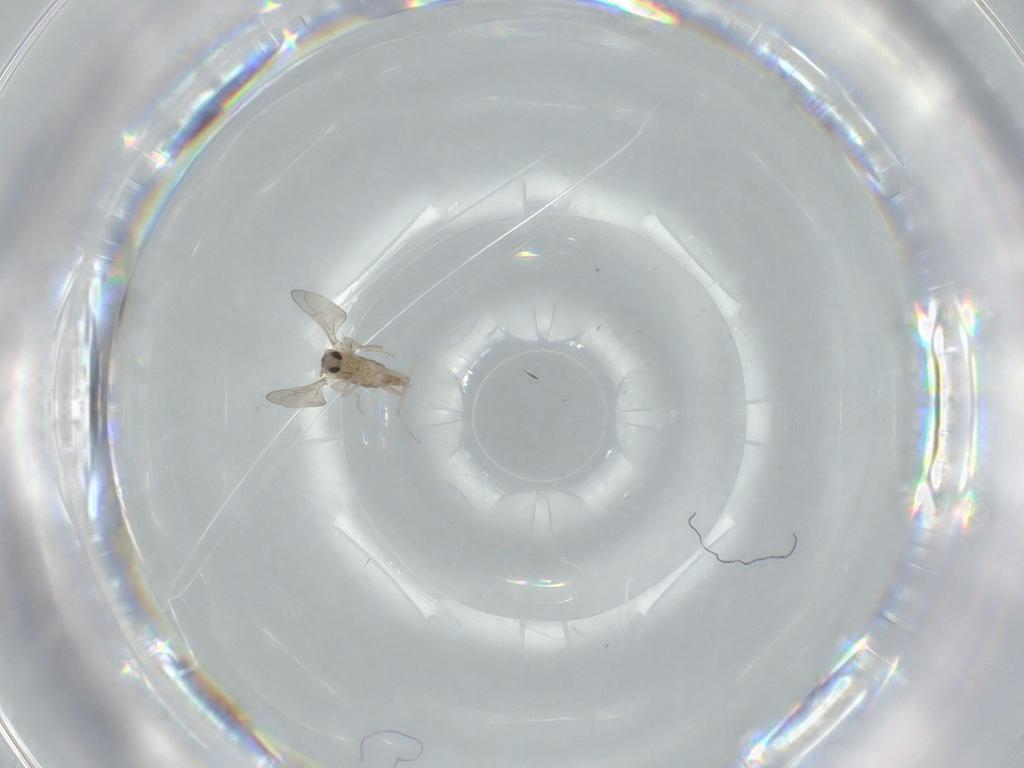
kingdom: Animalia
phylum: Arthropoda
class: Insecta
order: Diptera
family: Cecidomyiidae
